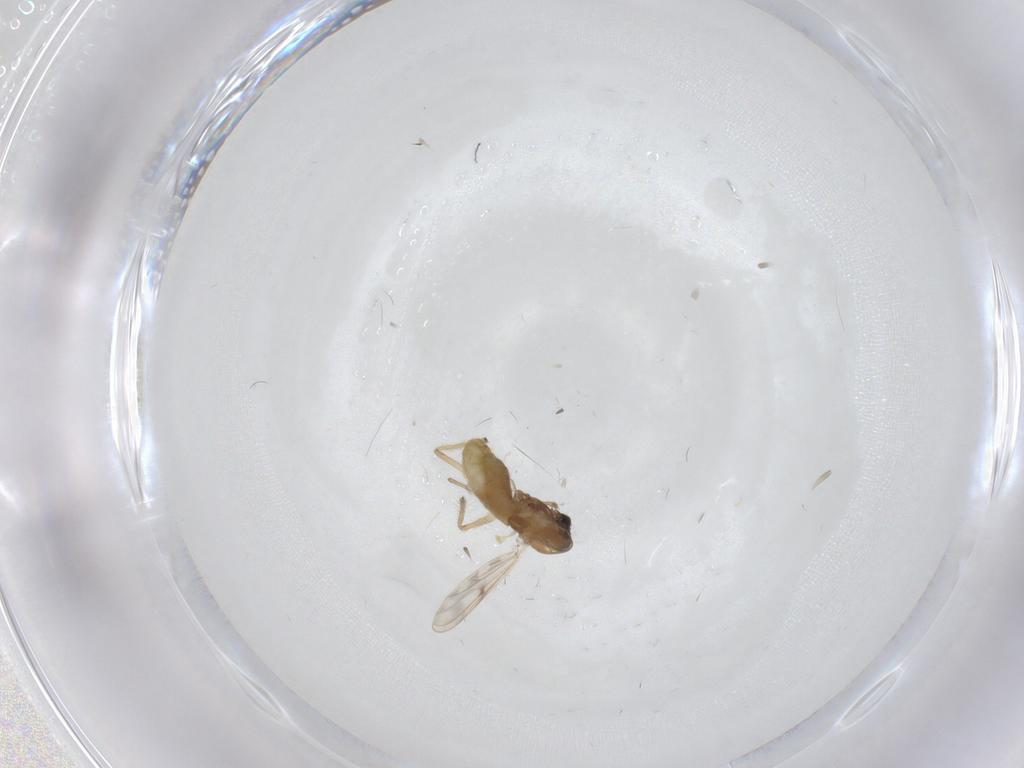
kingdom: Animalia
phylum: Arthropoda
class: Insecta
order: Diptera
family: Chironomidae
